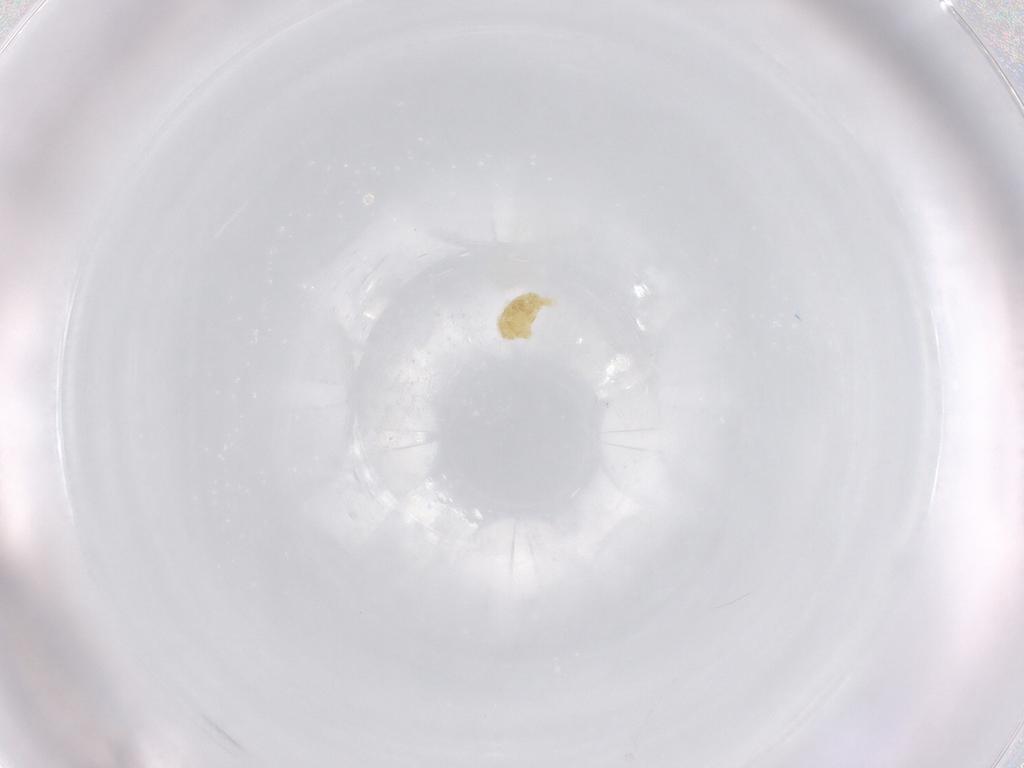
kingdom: Animalia
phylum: Arthropoda
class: Arachnida
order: Trombidiformes
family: Eupodidae
